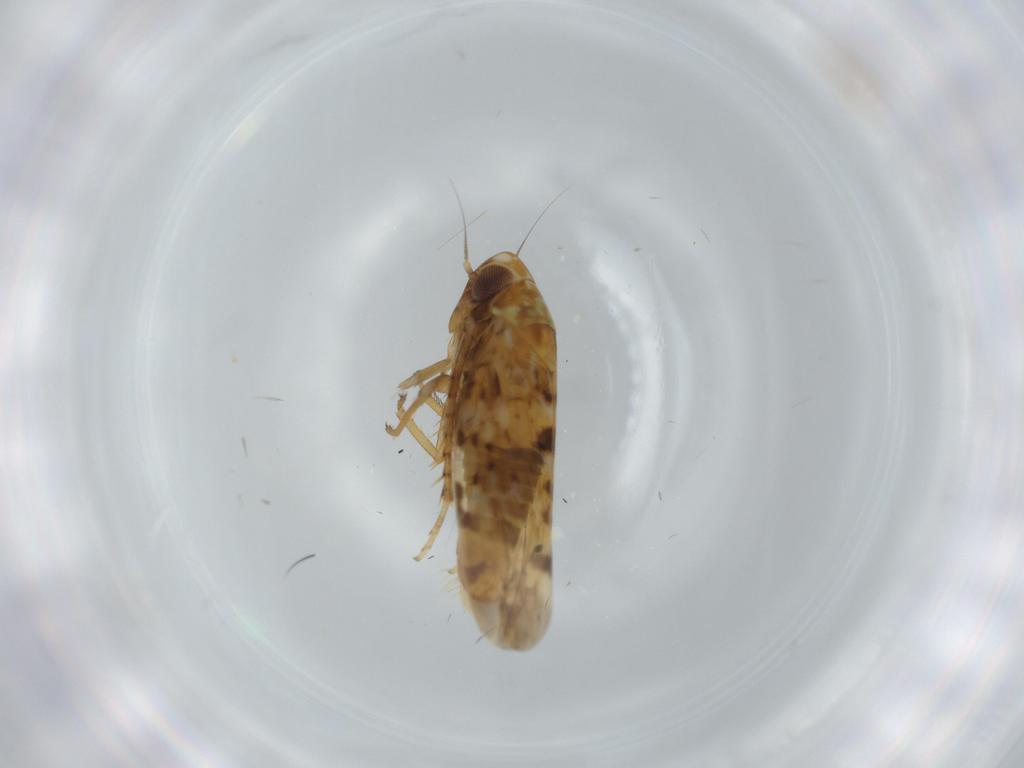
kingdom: Animalia
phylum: Arthropoda
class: Insecta
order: Hemiptera
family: Cicadellidae
